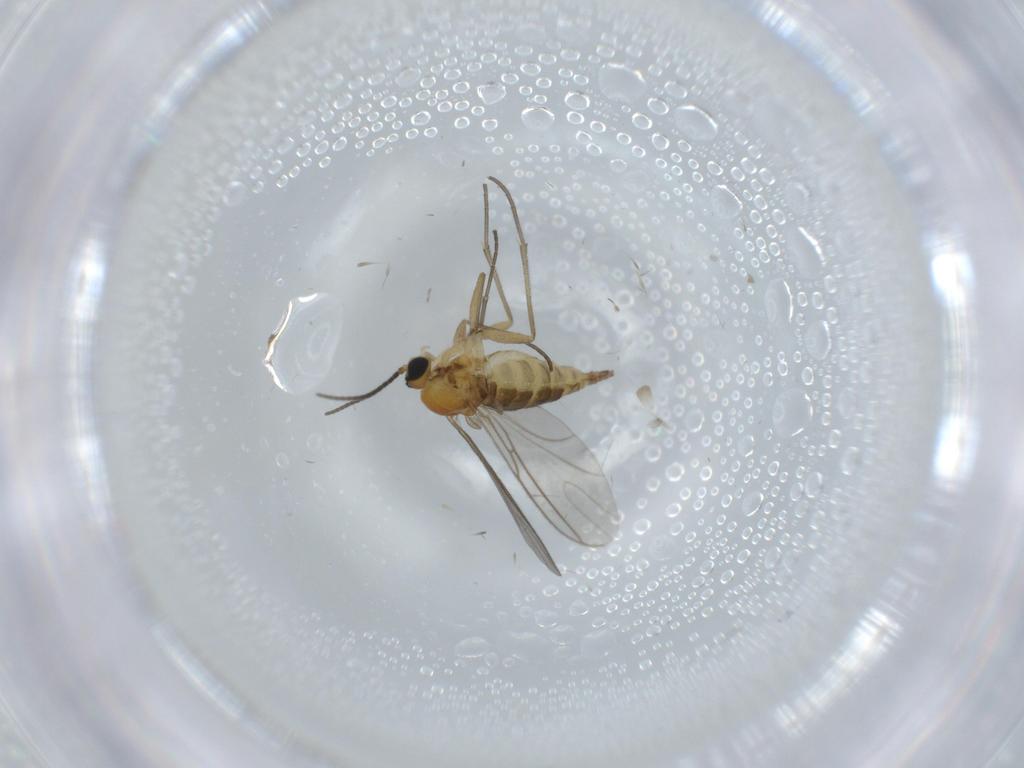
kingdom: Animalia
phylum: Arthropoda
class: Insecta
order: Diptera
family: Sciaridae
